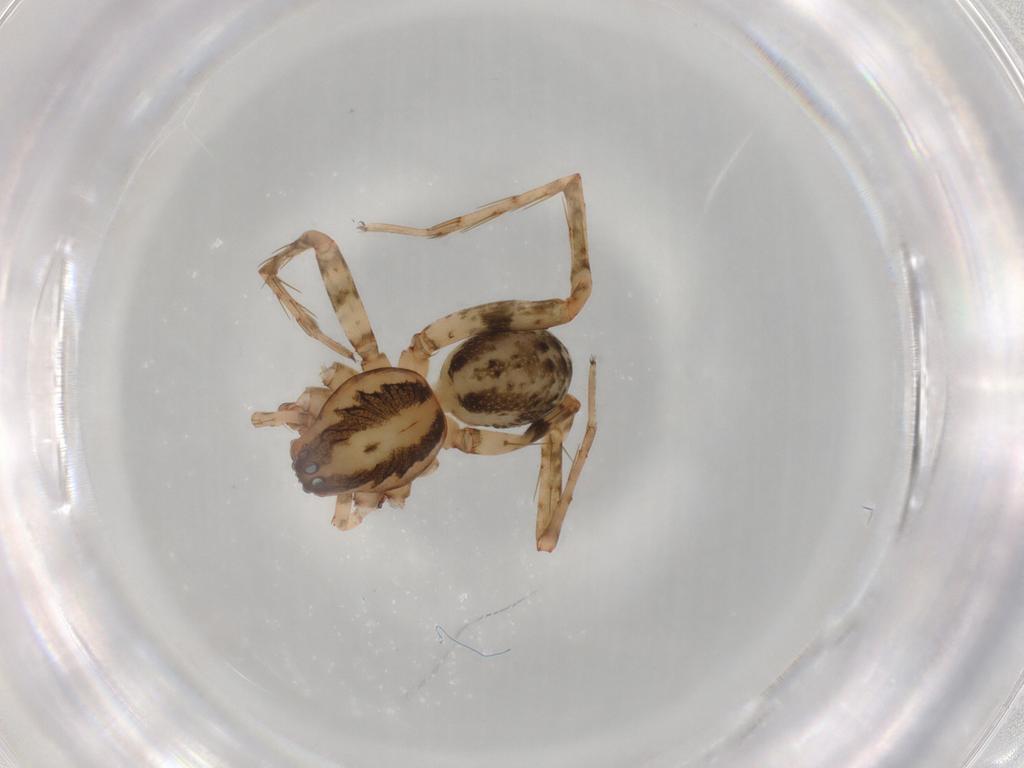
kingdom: Animalia
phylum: Arthropoda
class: Arachnida
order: Araneae
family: Anyphaenidae
